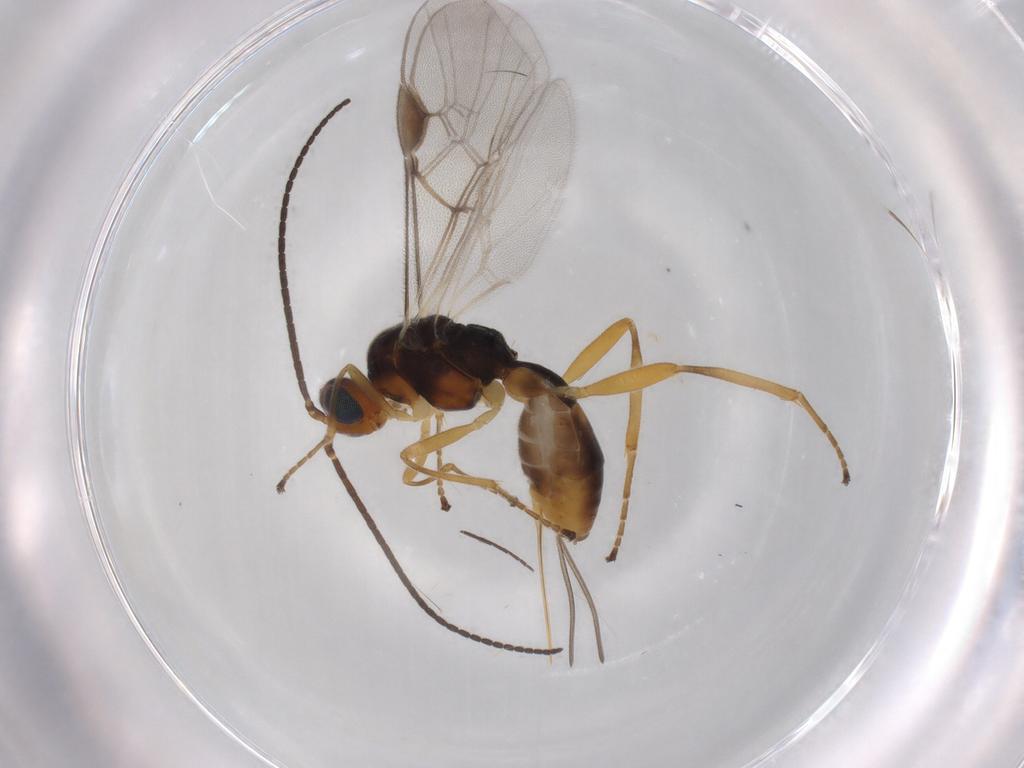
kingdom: Animalia
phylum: Arthropoda
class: Insecta
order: Hymenoptera
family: Braconidae
